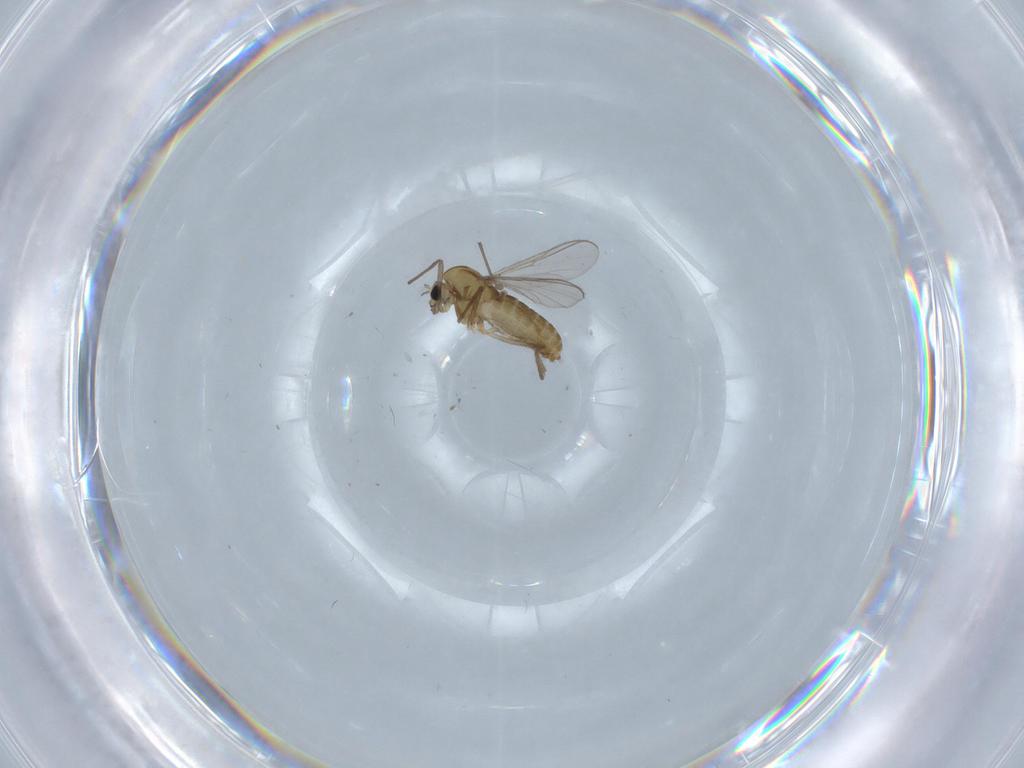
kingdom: Animalia
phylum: Arthropoda
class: Insecta
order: Diptera
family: Chironomidae
